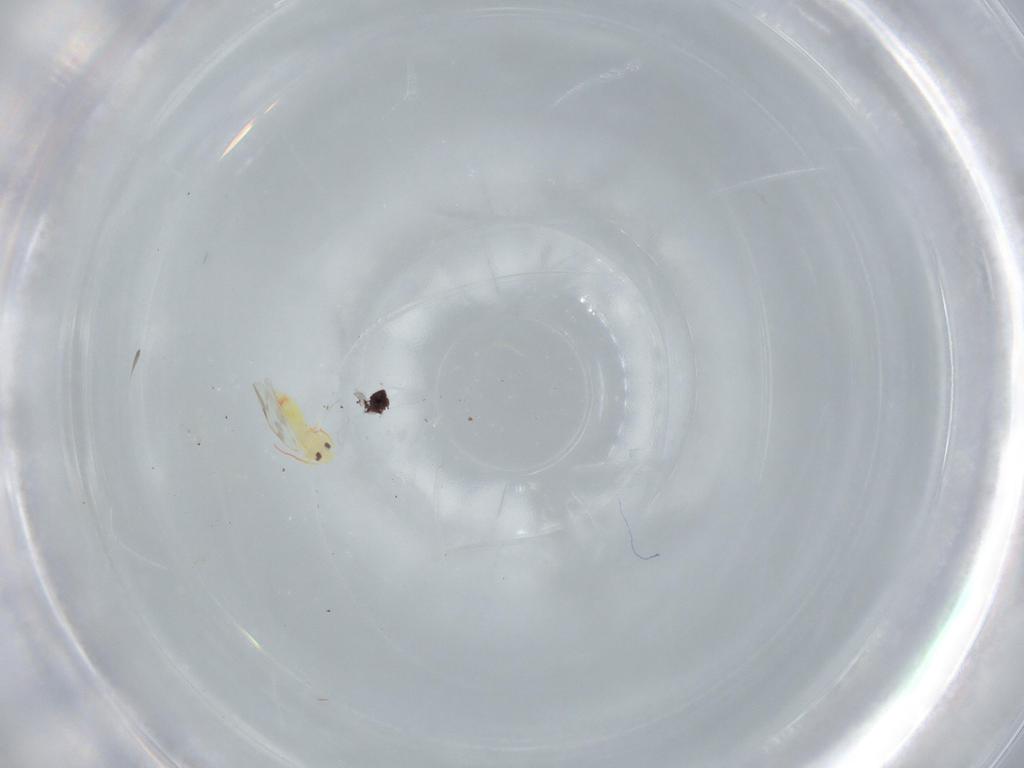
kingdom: Animalia
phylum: Arthropoda
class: Insecta
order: Hemiptera
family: Aleyrodidae
